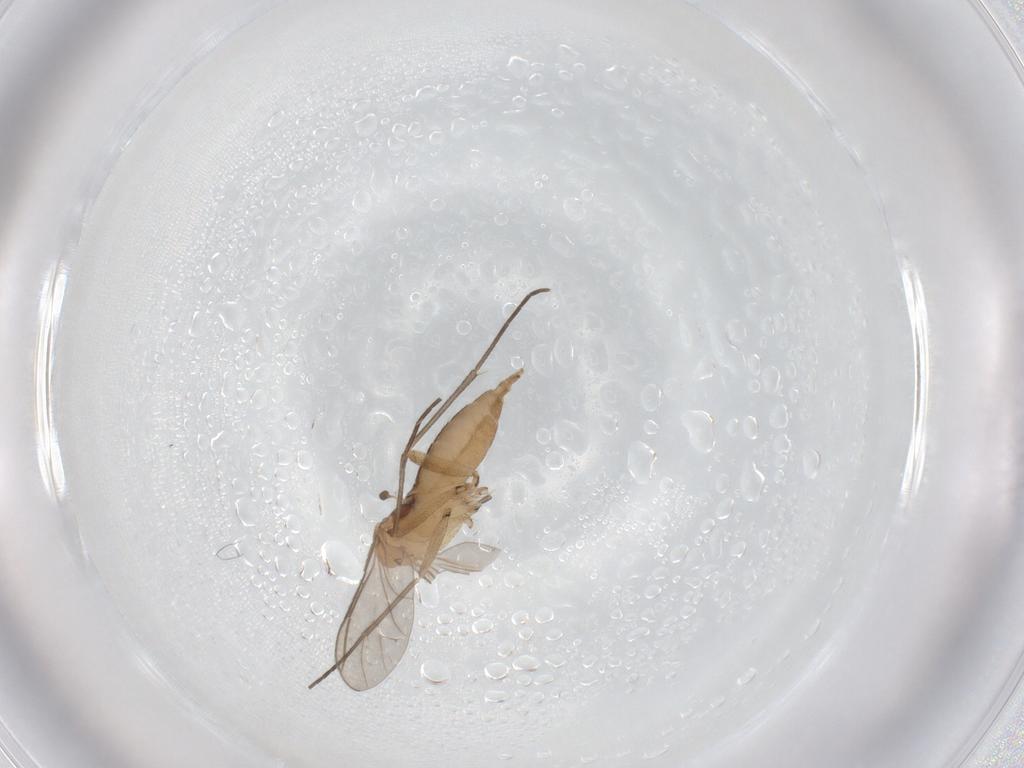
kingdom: Animalia
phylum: Arthropoda
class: Insecta
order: Diptera
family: Sciaridae
